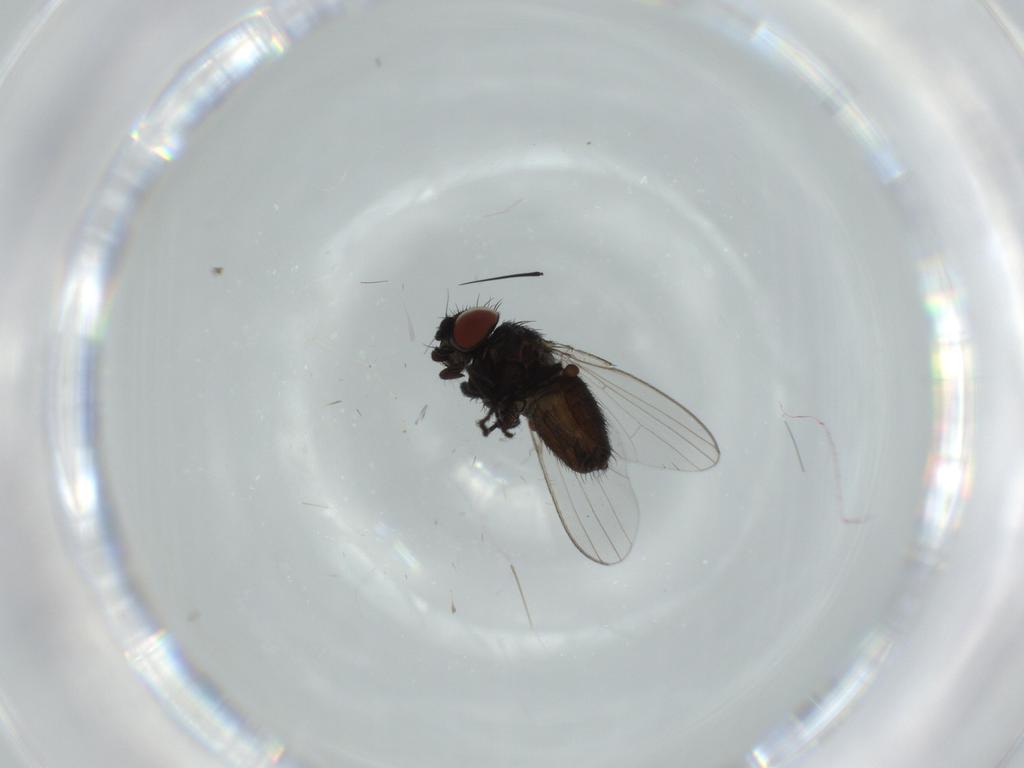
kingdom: Animalia
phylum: Arthropoda
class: Insecta
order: Diptera
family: Milichiidae
